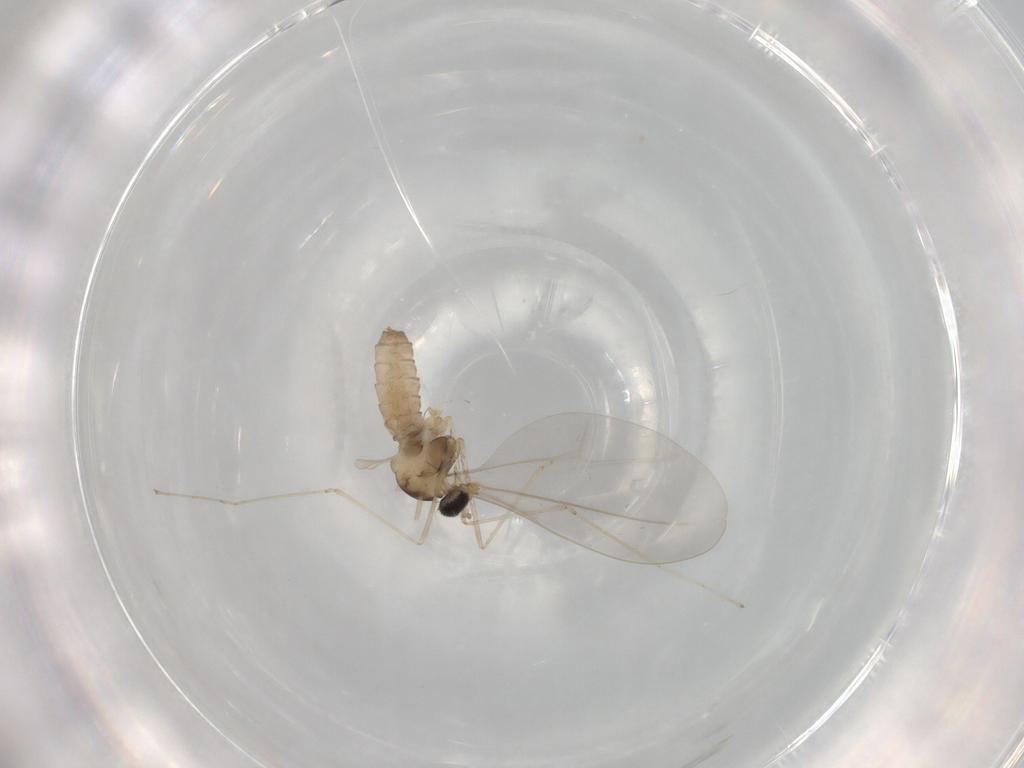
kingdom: Animalia
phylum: Arthropoda
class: Insecta
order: Diptera
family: Cecidomyiidae
